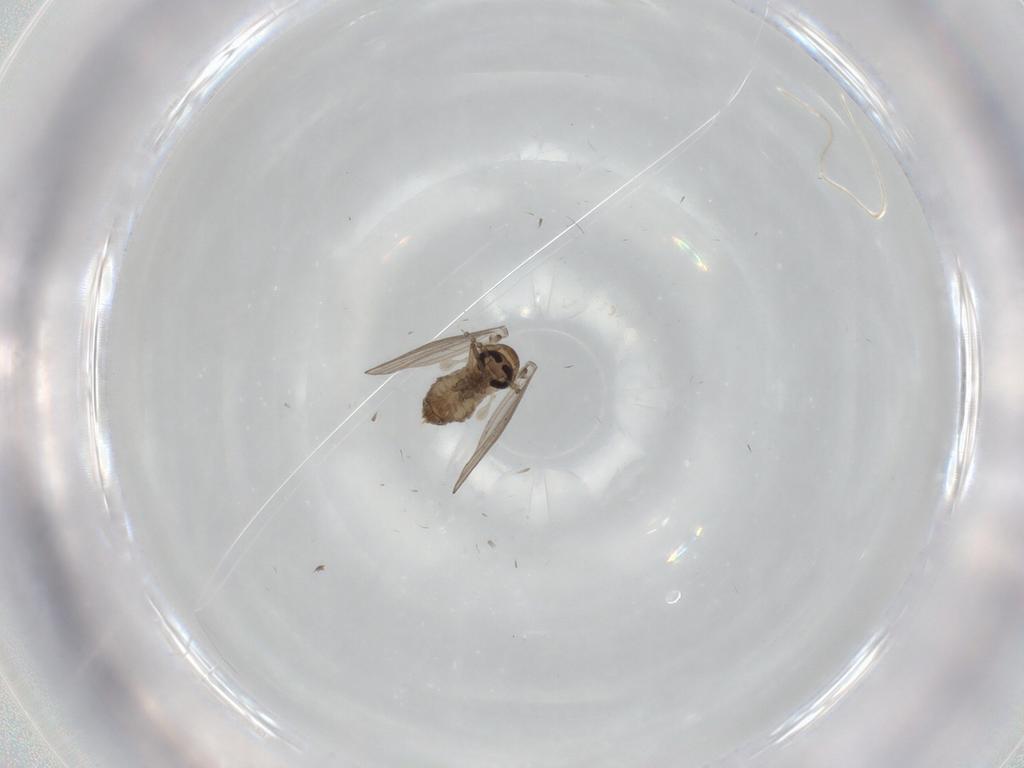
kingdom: Animalia
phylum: Arthropoda
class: Insecta
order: Diptera
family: Psychodidae
